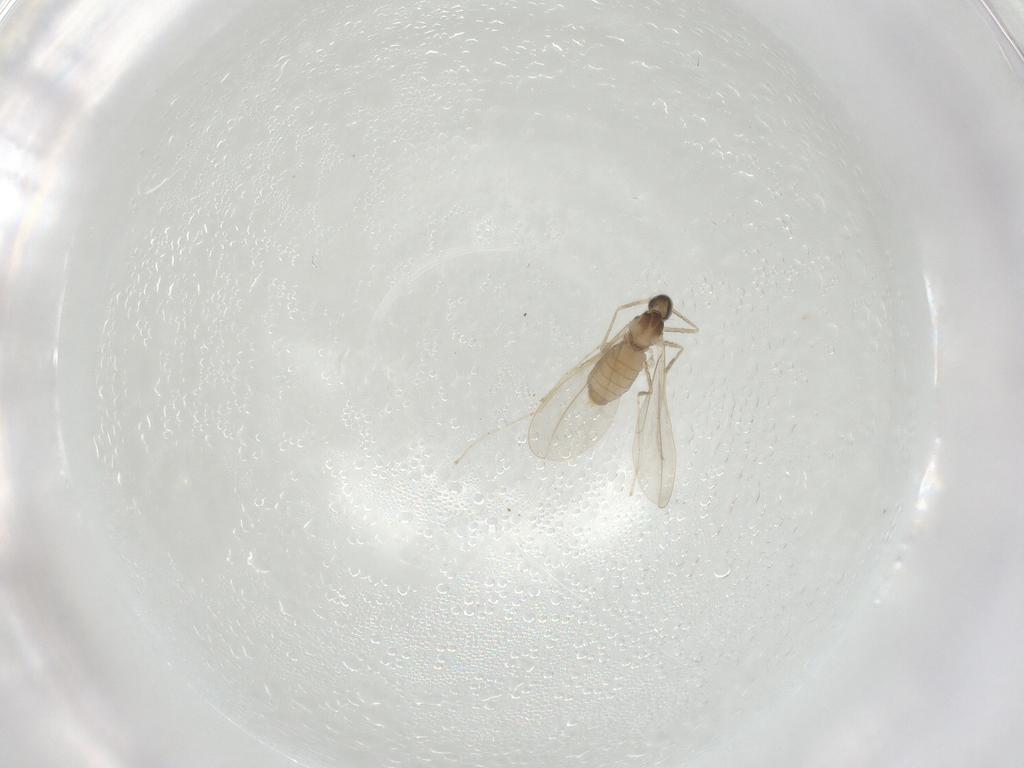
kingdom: Animalia
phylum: Arthropoda
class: Insecta
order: Diptera
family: Cecidomyiidae
